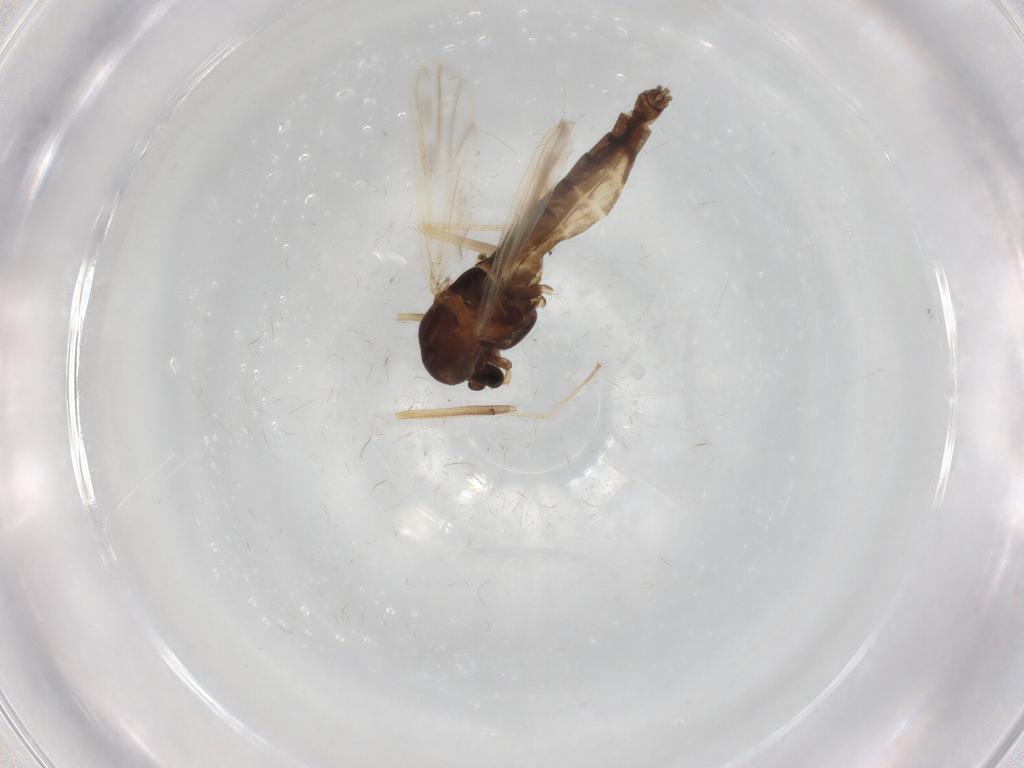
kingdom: Animalia
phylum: Arthropoda
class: Insecta
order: Diptera
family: Chironomidae
